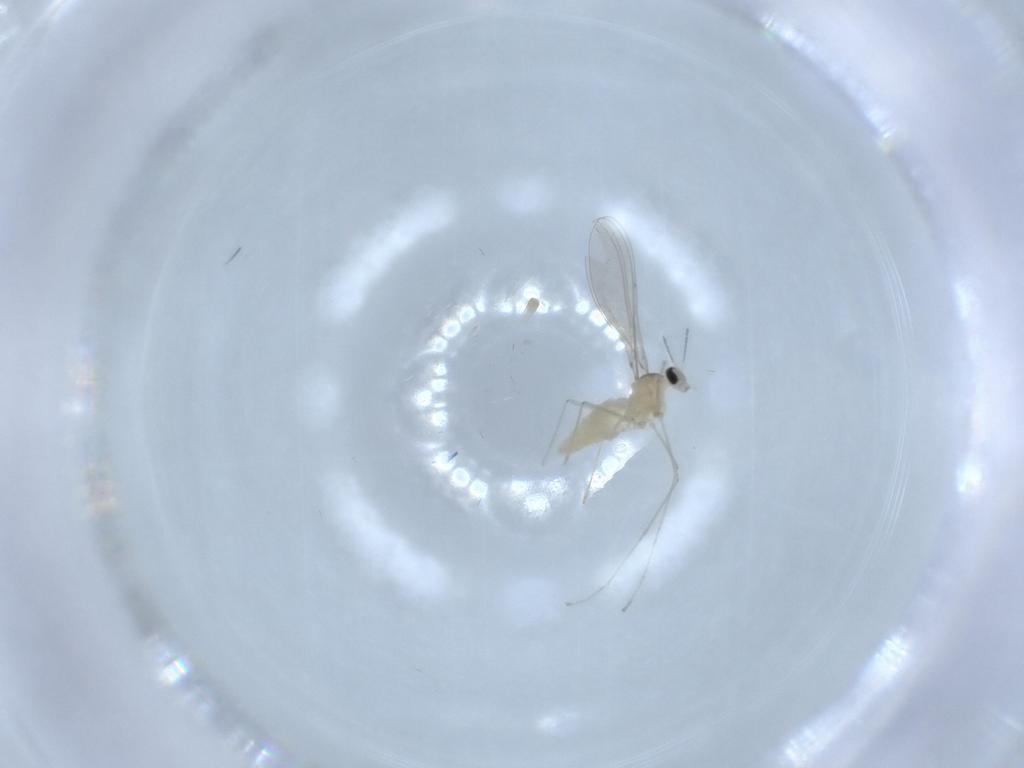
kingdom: Animalia
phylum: Arthropoda
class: Insecta
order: Diptera
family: Cecidomyiidae
